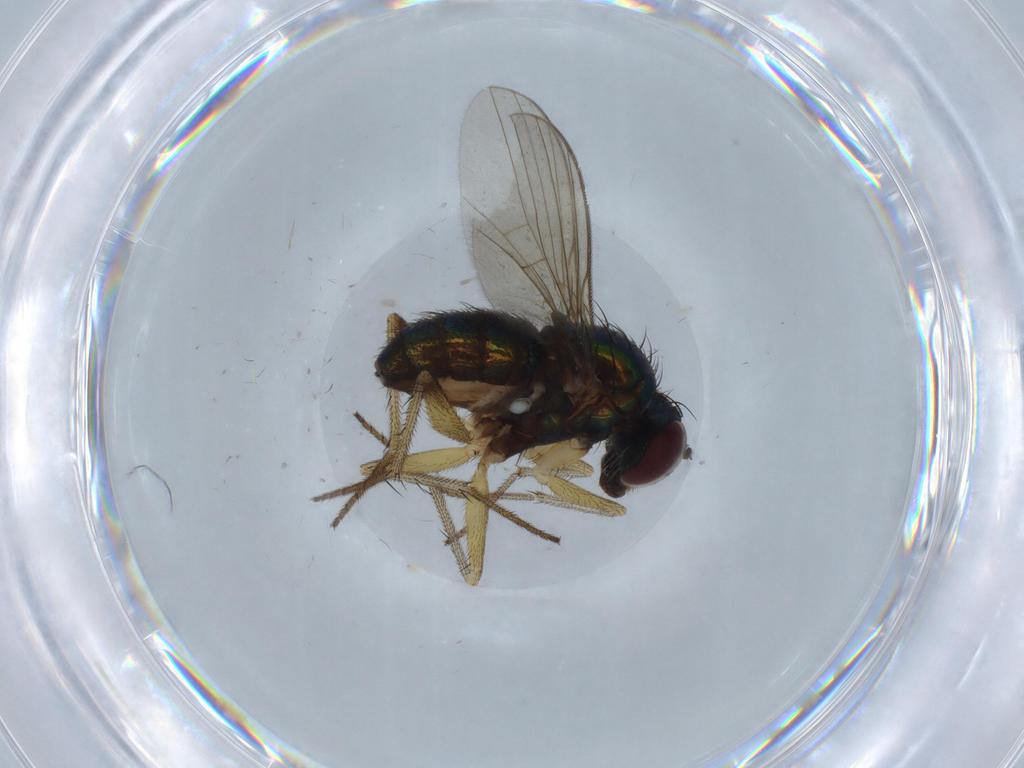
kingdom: Animalia
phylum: Arthropoda
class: Insecta
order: Diptera
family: Dolichopodidae
